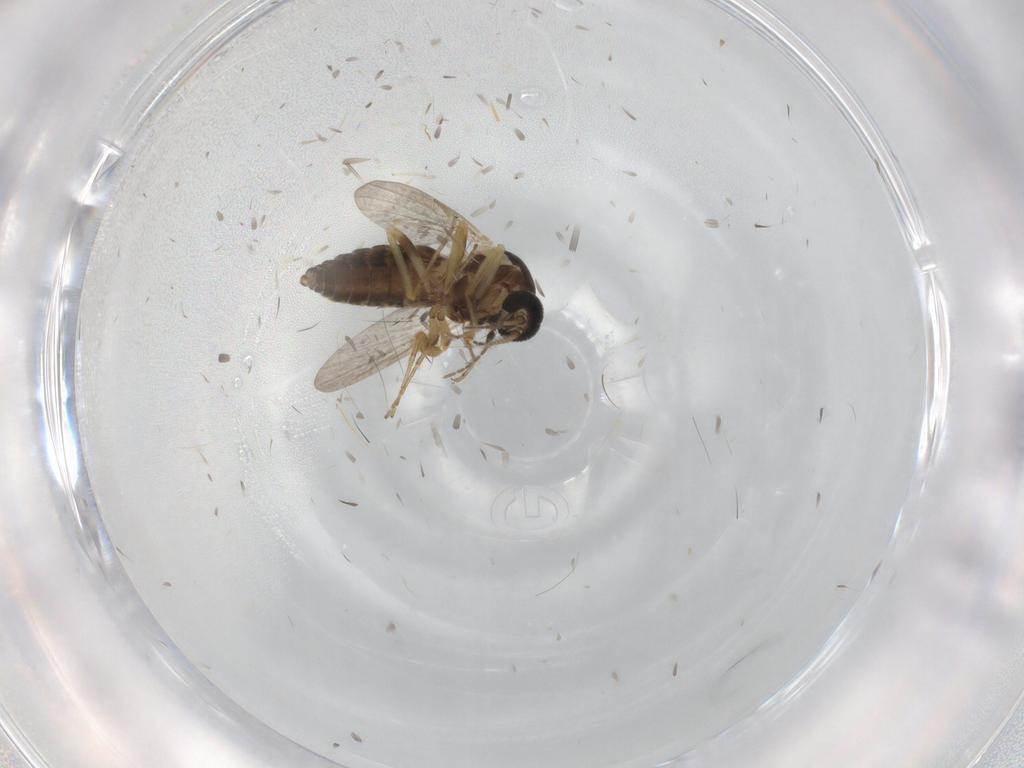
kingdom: Animalia
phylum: Arthropoda
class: Insecta
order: Diptera
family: Ceratopogonidae
